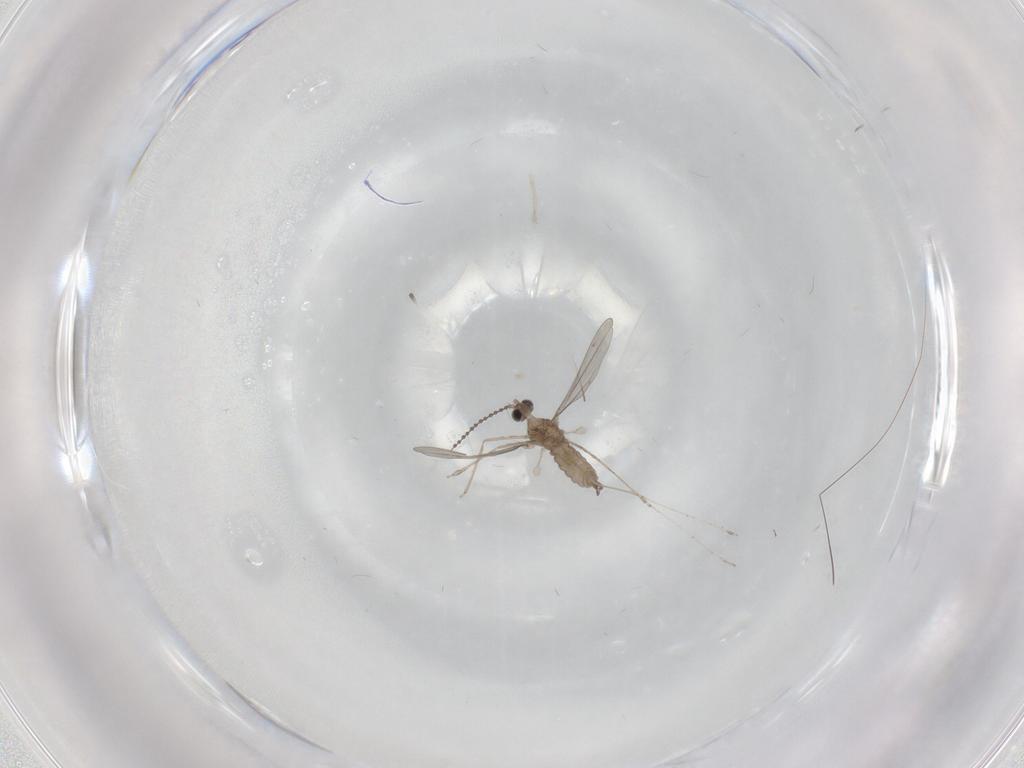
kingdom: Animalia
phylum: Arthropoda
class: Insecta
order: Diptera
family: Cecidomyiidae
